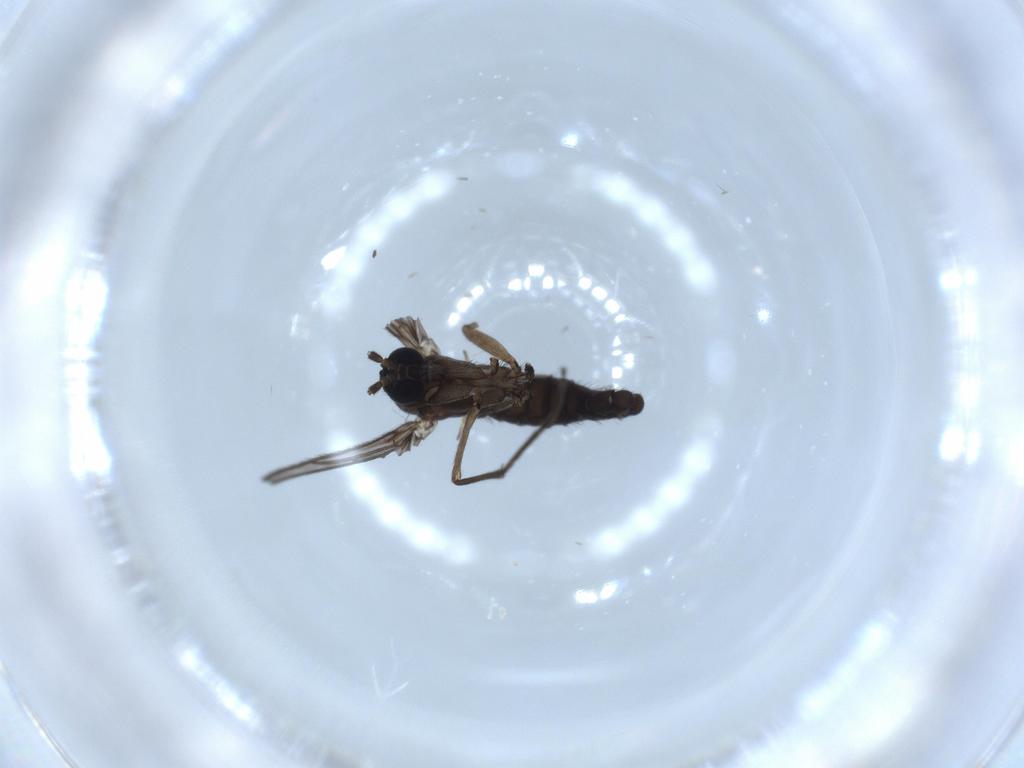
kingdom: Animalia
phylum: Arthropoda
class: Insecta
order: Diptera
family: Sciaridae
